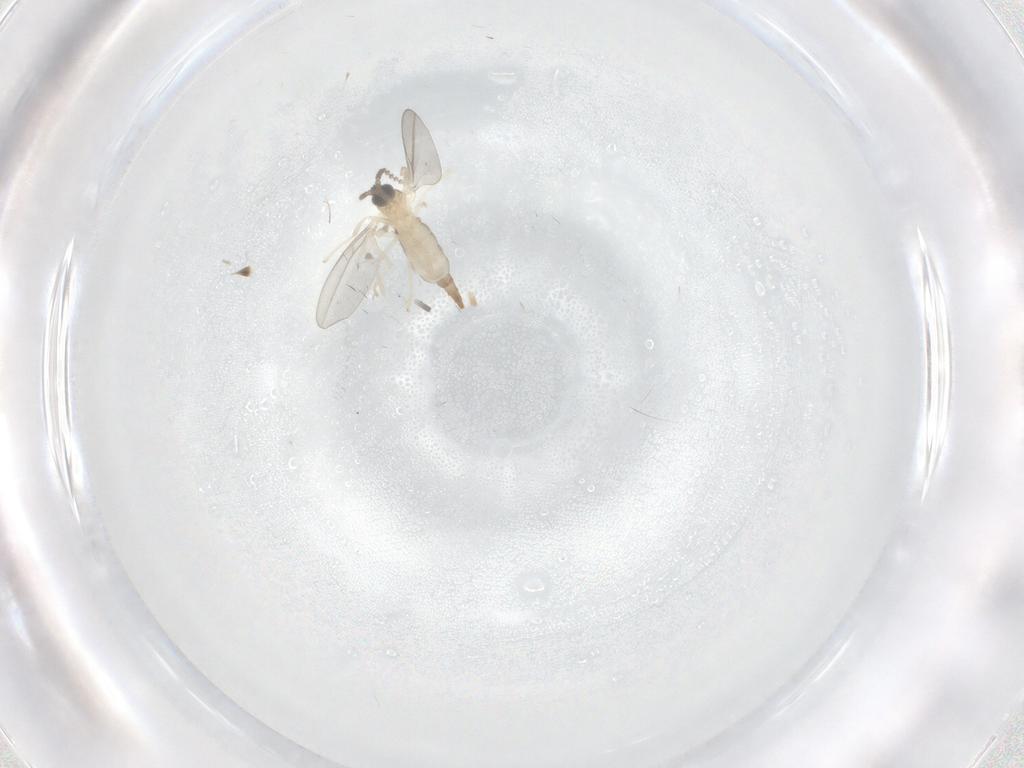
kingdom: Animalia
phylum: Arthropoda
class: Insecta
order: Diptera
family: Cecidomyiidae
